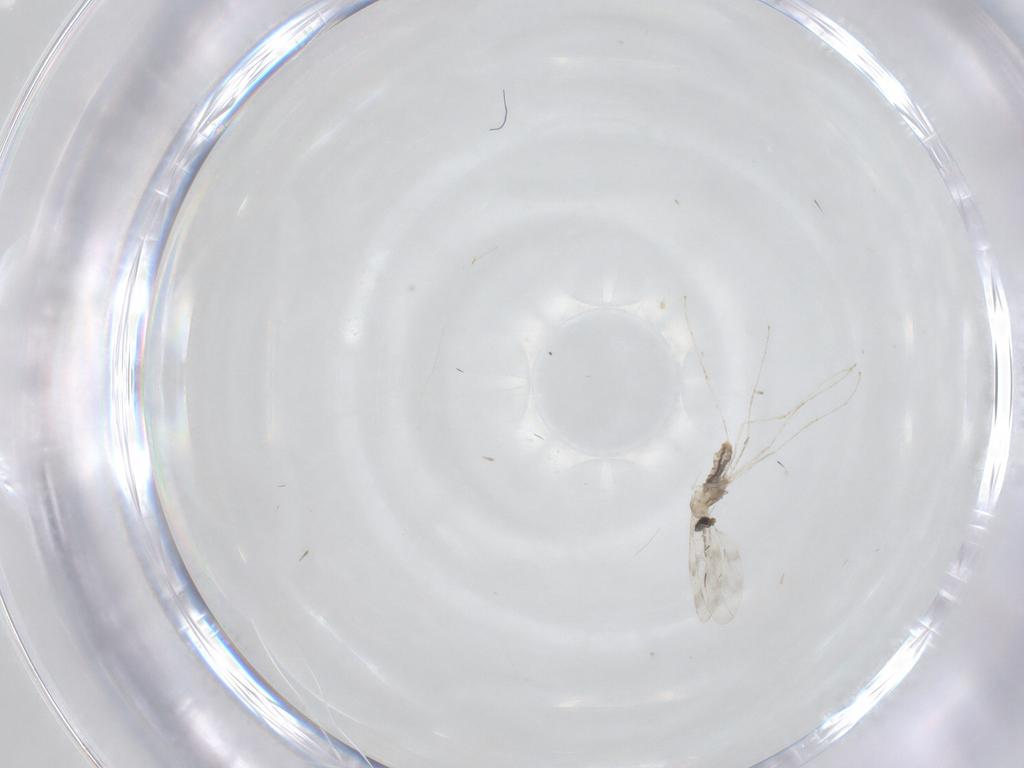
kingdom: Animalia
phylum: Arthropoda
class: Insecta
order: Diptera
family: Cecidomyiidae
